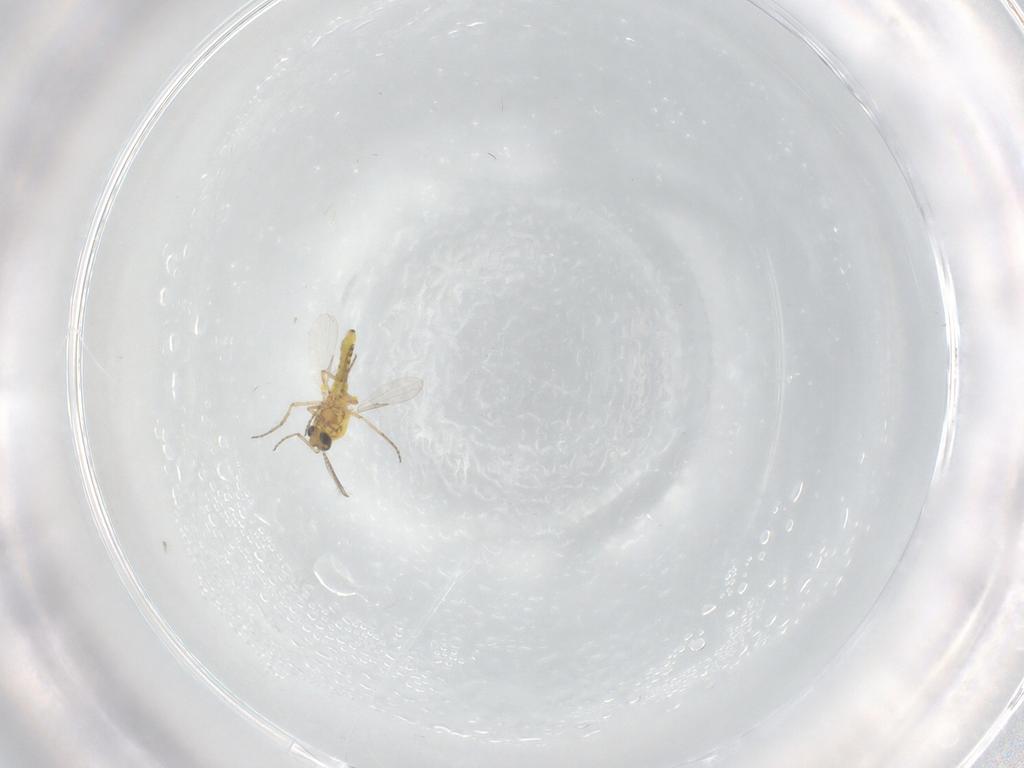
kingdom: Animalia
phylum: Arthropoda
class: Insecta
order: Diptera
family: Ceratopogonidae
